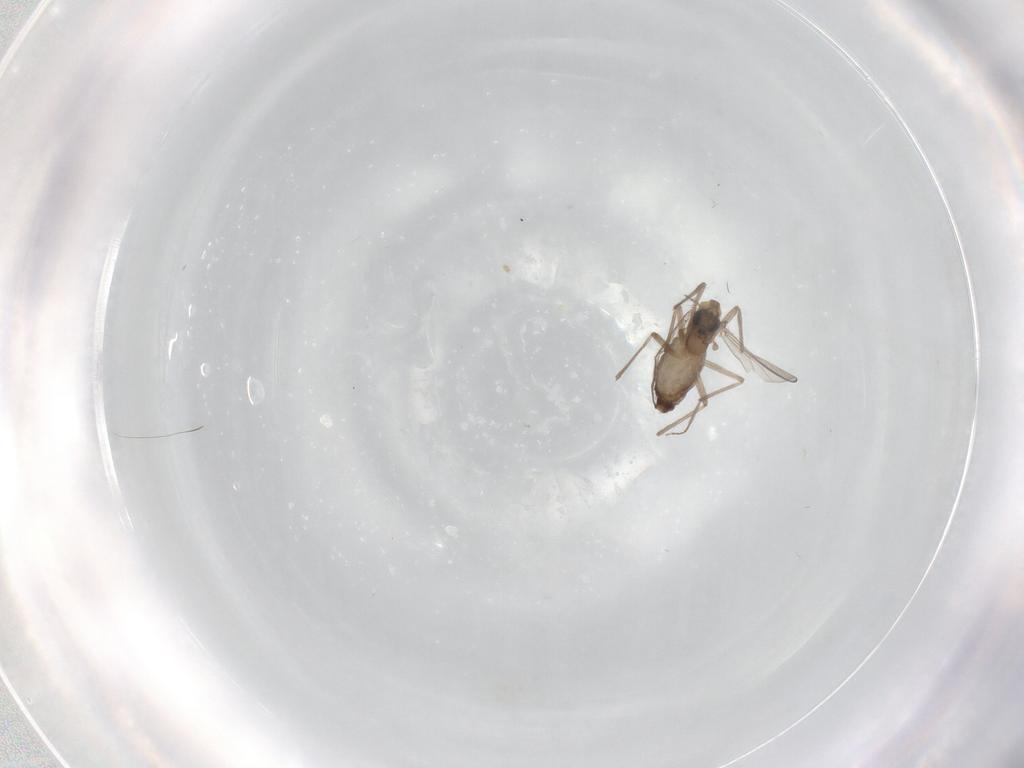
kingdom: Animalia
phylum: Arthropoda
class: Insecta
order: Diptera
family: Chironomidae
